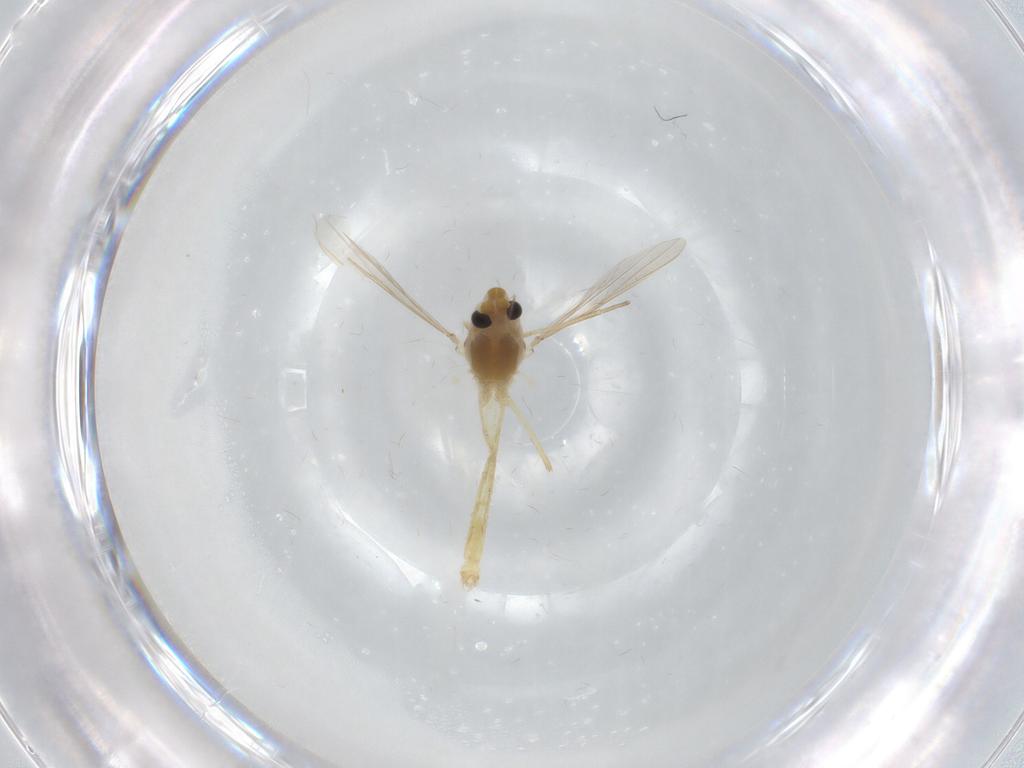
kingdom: Animalia
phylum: Arthropoda
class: Insecta
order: Diptera
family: Chironomidae
